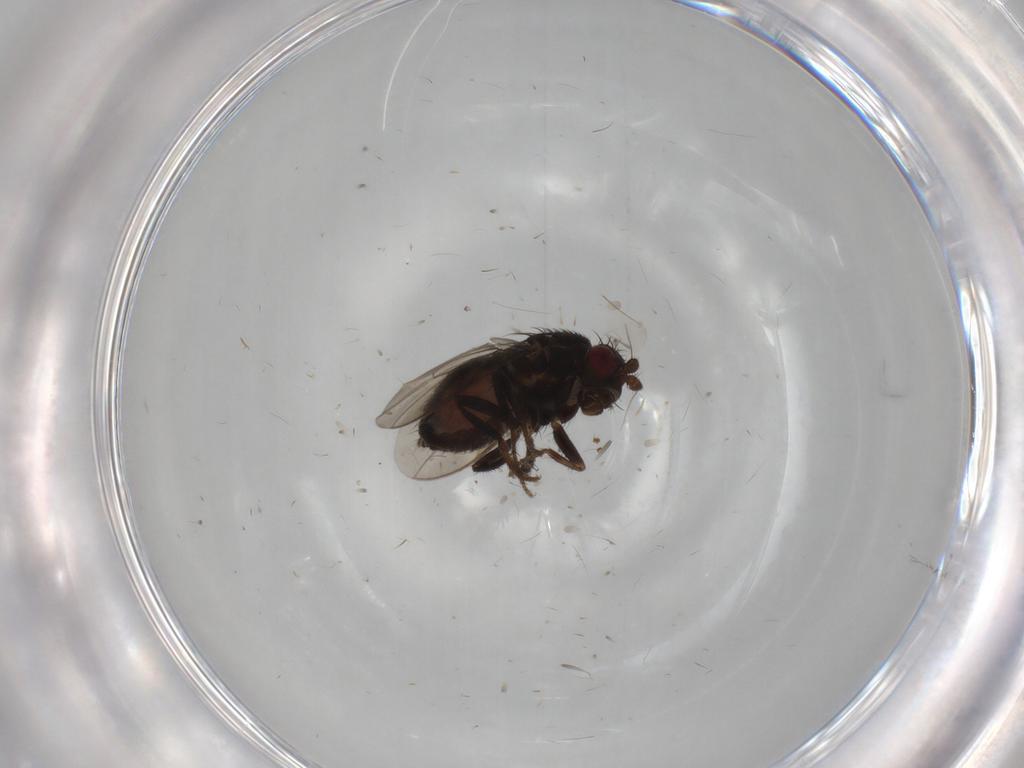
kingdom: Animalia
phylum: Arthropoda
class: Insecta
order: Diptera
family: Sphaeroceridae
